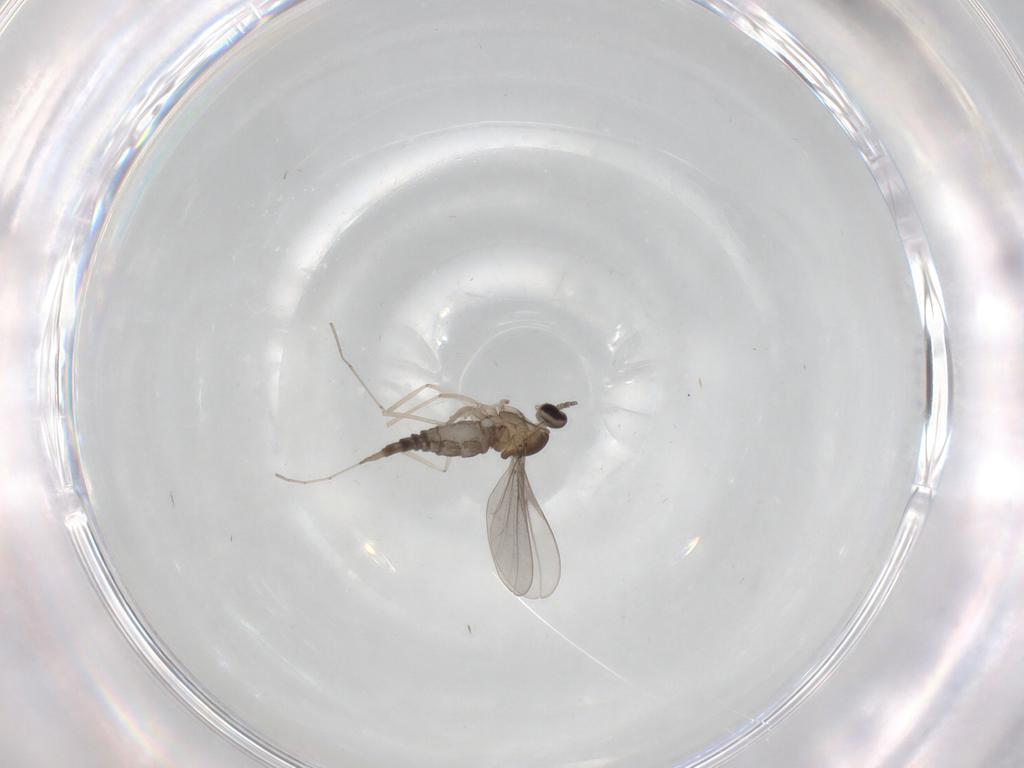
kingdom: Animalia
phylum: Arthropoda
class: Insecta
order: Diptera
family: Cecidomyiidae
